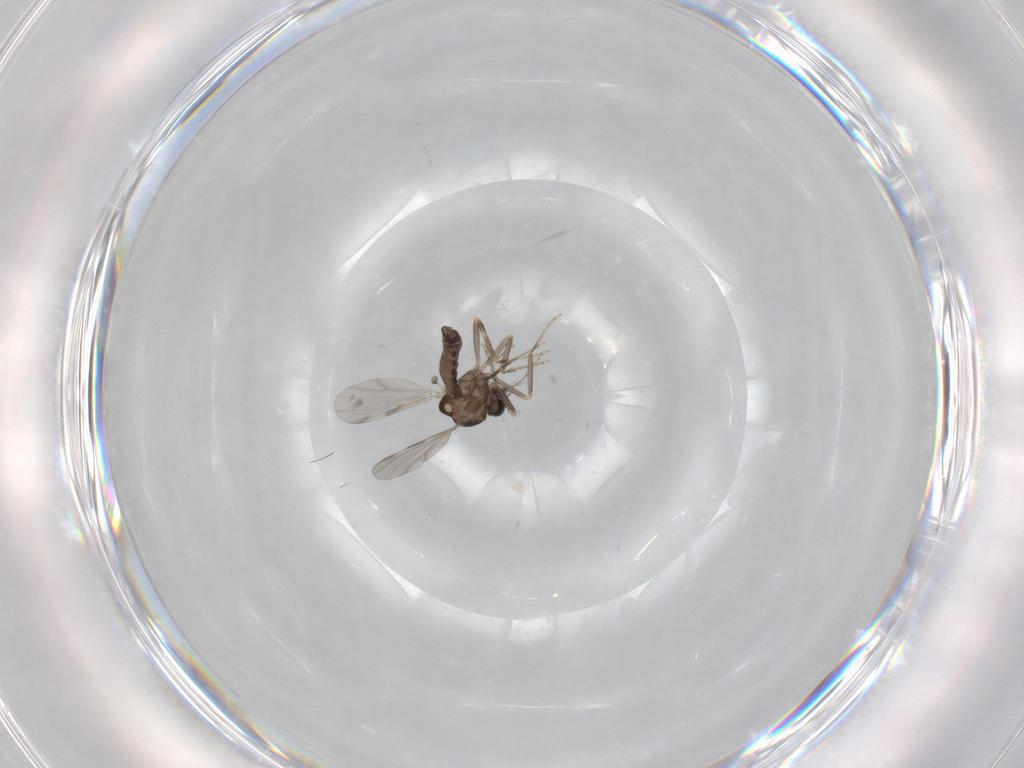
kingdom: Animalia
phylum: Arthropoda
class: Insecta
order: Diptera
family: Ceratopogonidae
